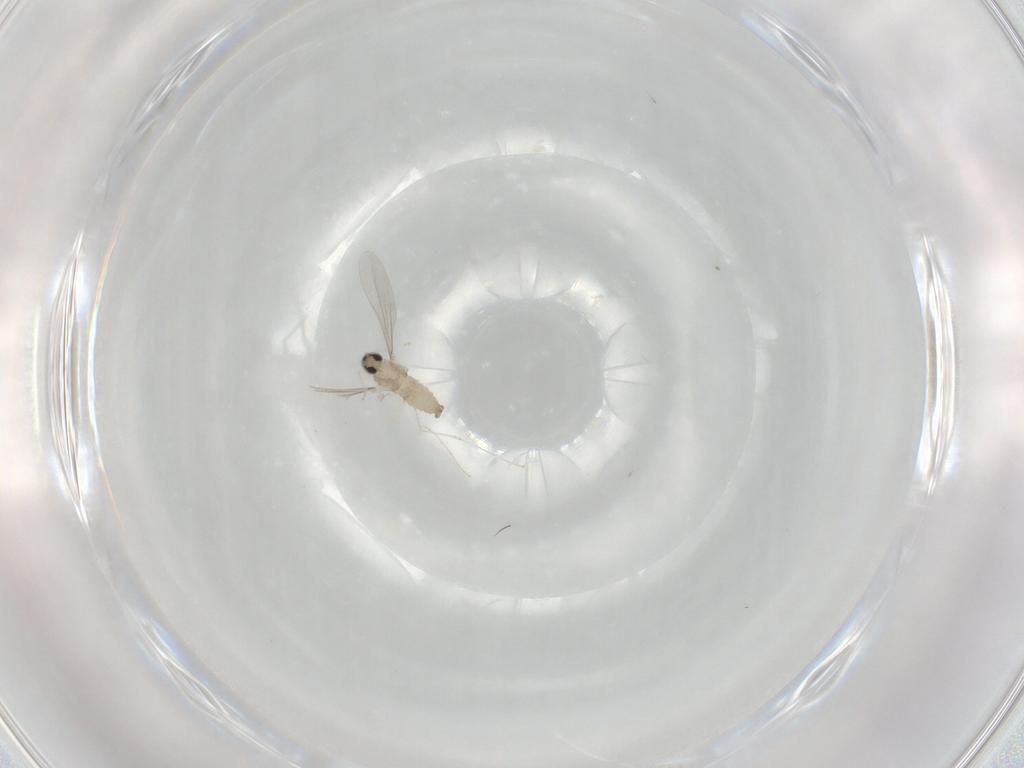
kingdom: Animalia
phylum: Arthropoda
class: Insecta
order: Diptera
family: Cecidomyiidae
